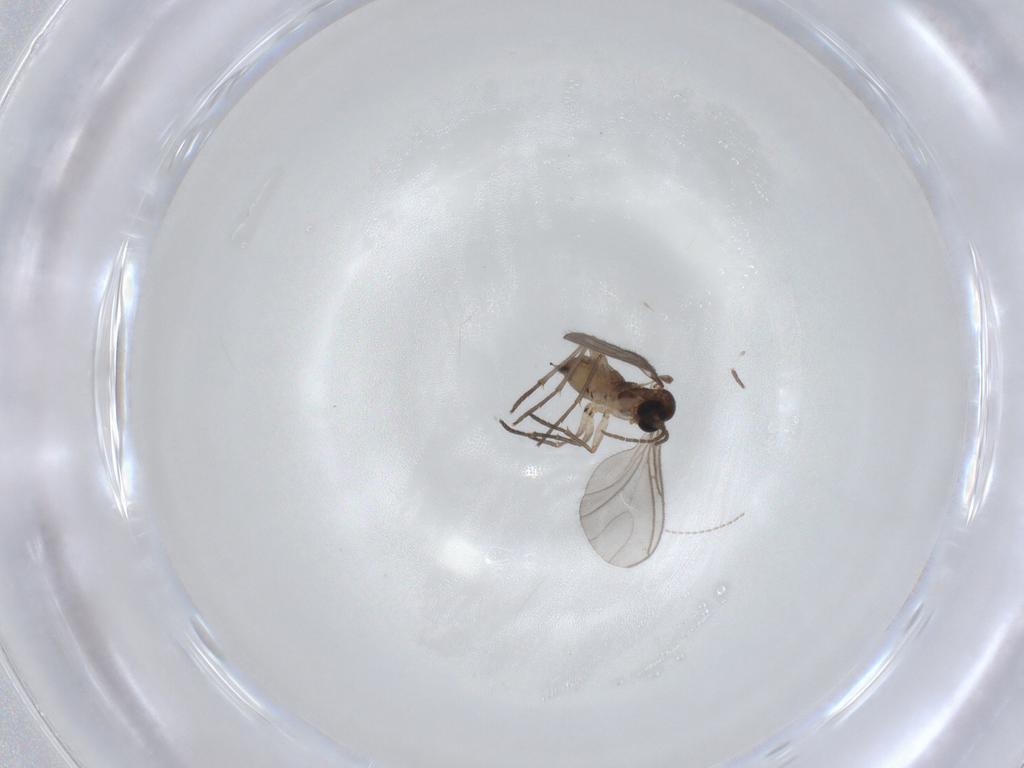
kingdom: Animalia
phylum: Arthropoda
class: Insecta
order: Diptera
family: Sciaridae
